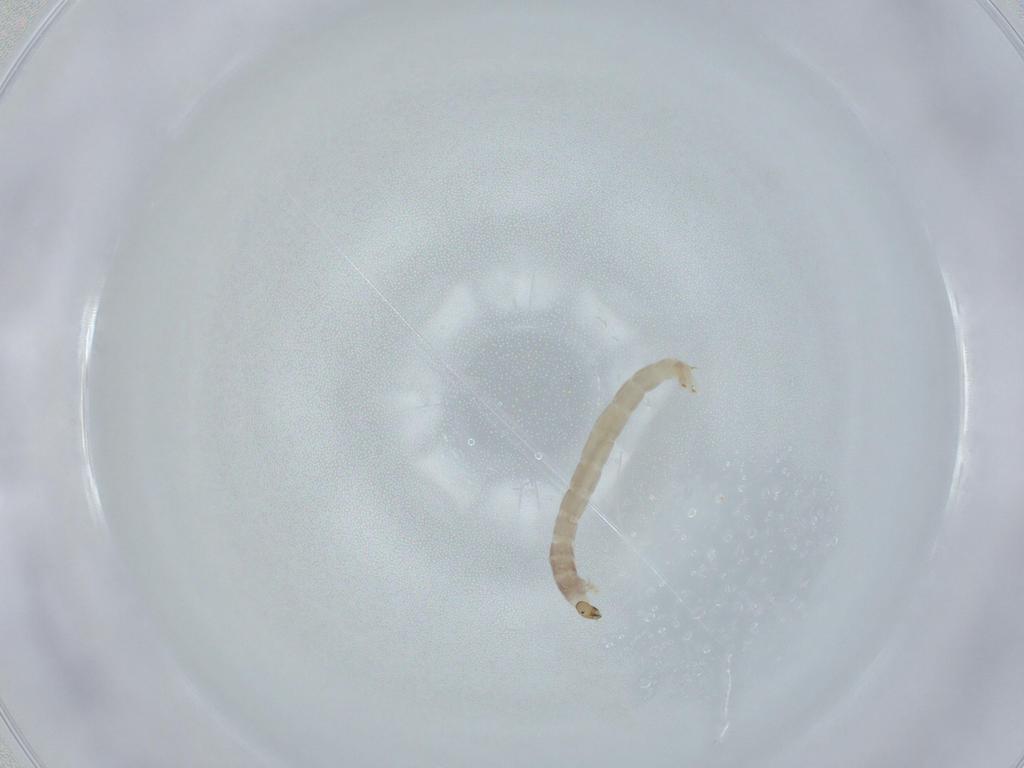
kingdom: Animalia
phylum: Arthropoda
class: Insecta
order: Diptera
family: Chironomidae
